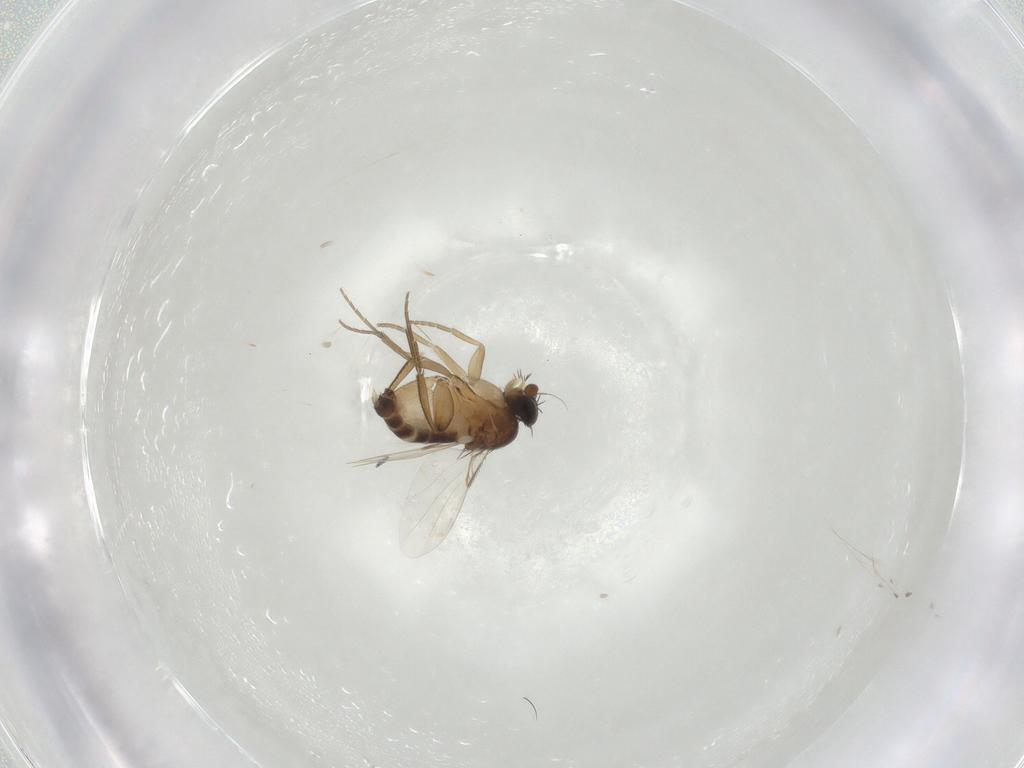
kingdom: Animalia
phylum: Arthropoda
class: Insecta
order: Diptera
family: Phoridae
